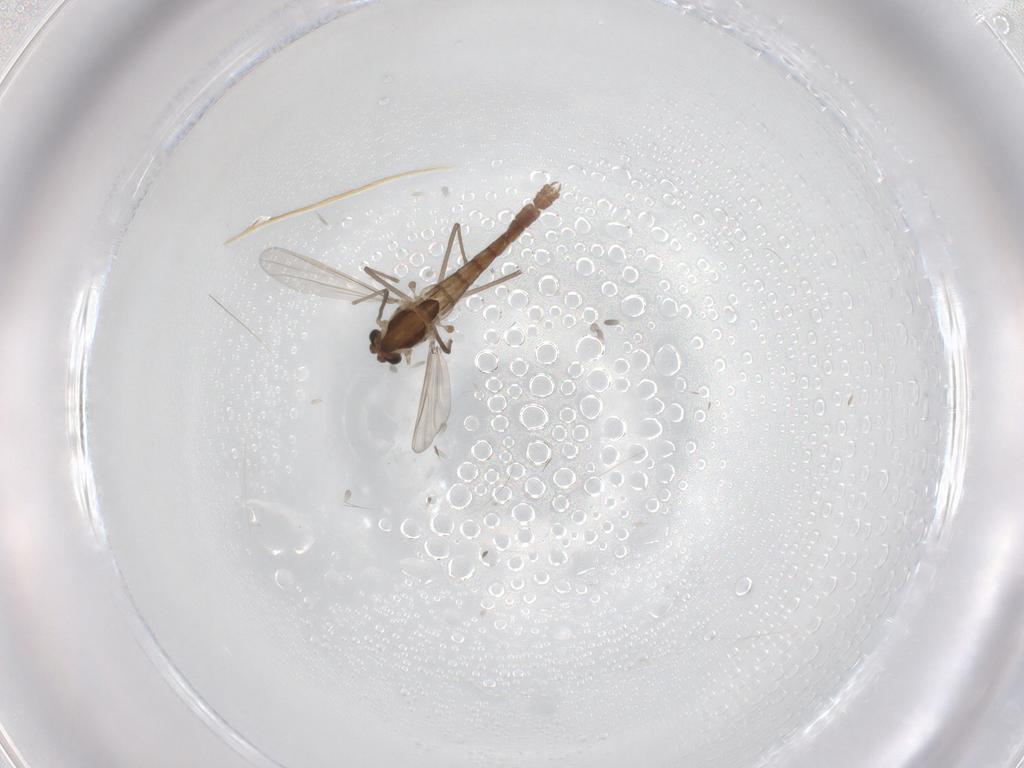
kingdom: Animalia
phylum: Arthropoda
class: Insecta
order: Diptera
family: Chironomidae
